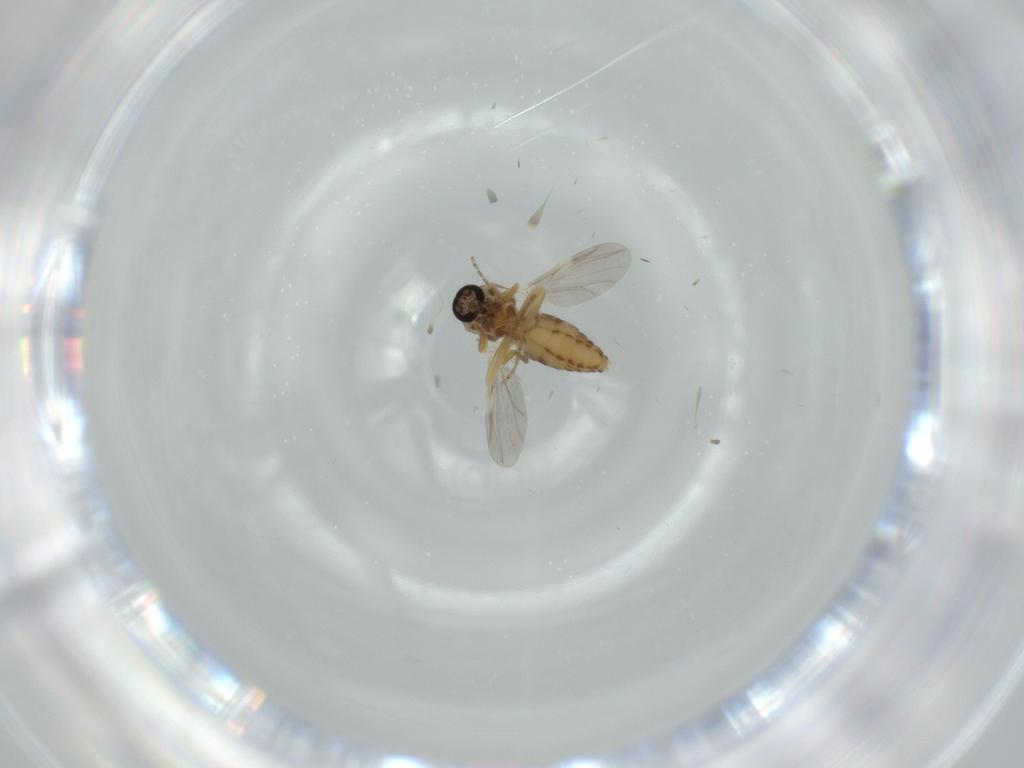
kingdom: Animalia
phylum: Arthropoda
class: Insecta
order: Diptera
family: Ceratopogonidae
